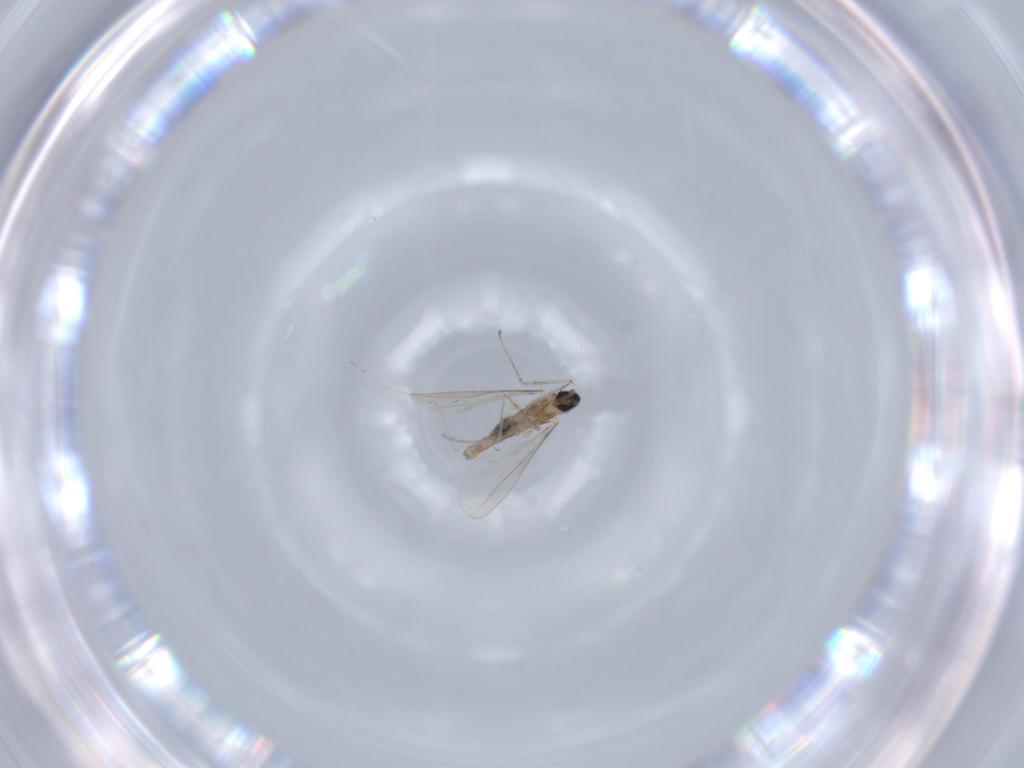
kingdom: Animalia
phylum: Arthropoda
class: Insecta
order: Diptera
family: Cecidomyiidae
